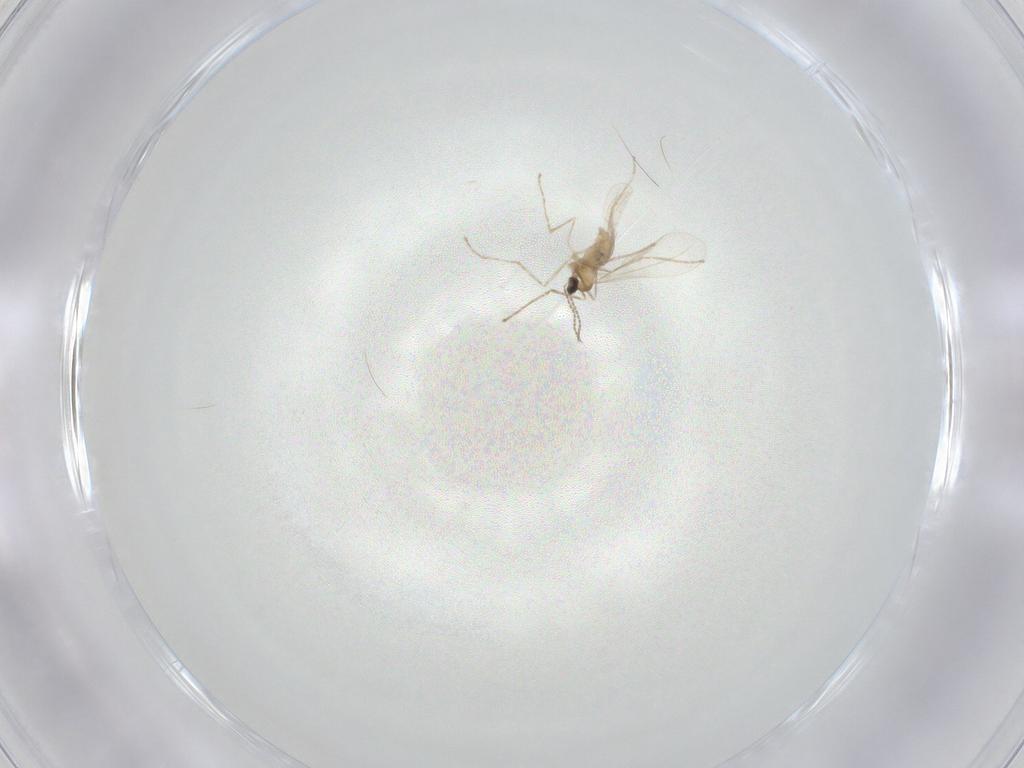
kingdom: Animalia
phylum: Arthropoda
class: Insecta
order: Diptera
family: Cecidomyiidae
